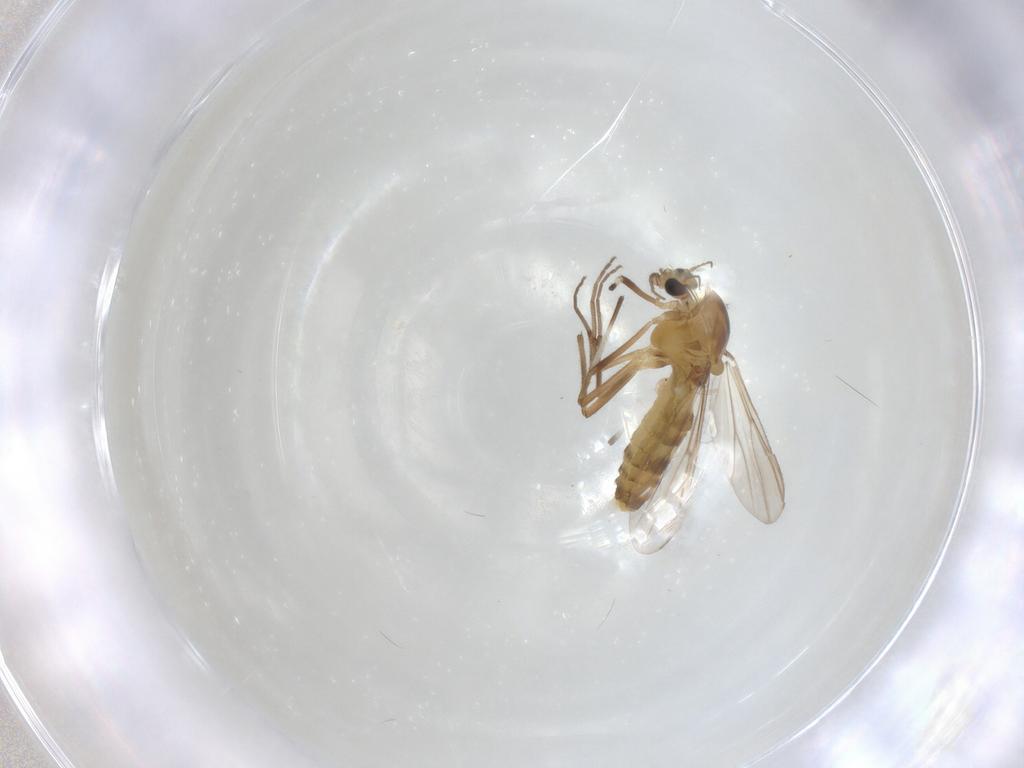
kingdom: Animalia
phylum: Arthropoda
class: Insecta
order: Diptera
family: Chironomidae
